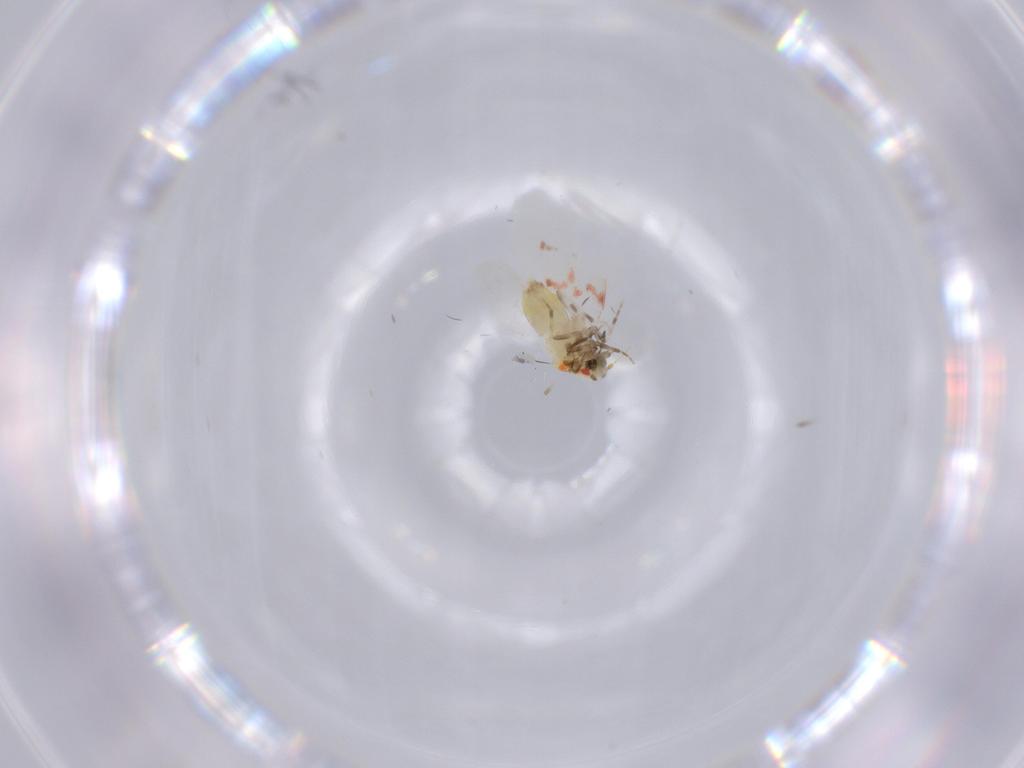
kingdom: Animalia
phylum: Arthropoda
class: Insecta
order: Hemiptera
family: Aleyrodidae
